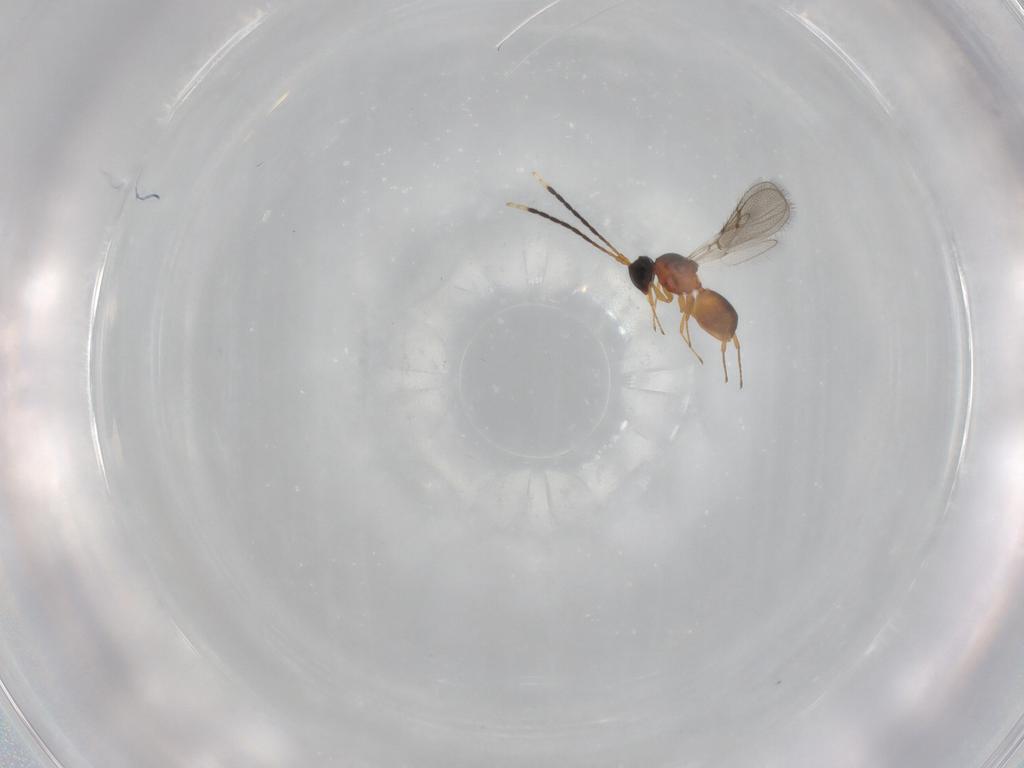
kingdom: Animalia
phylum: Arthropoda
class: Insecta
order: Hymenoptera
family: Figitidae
